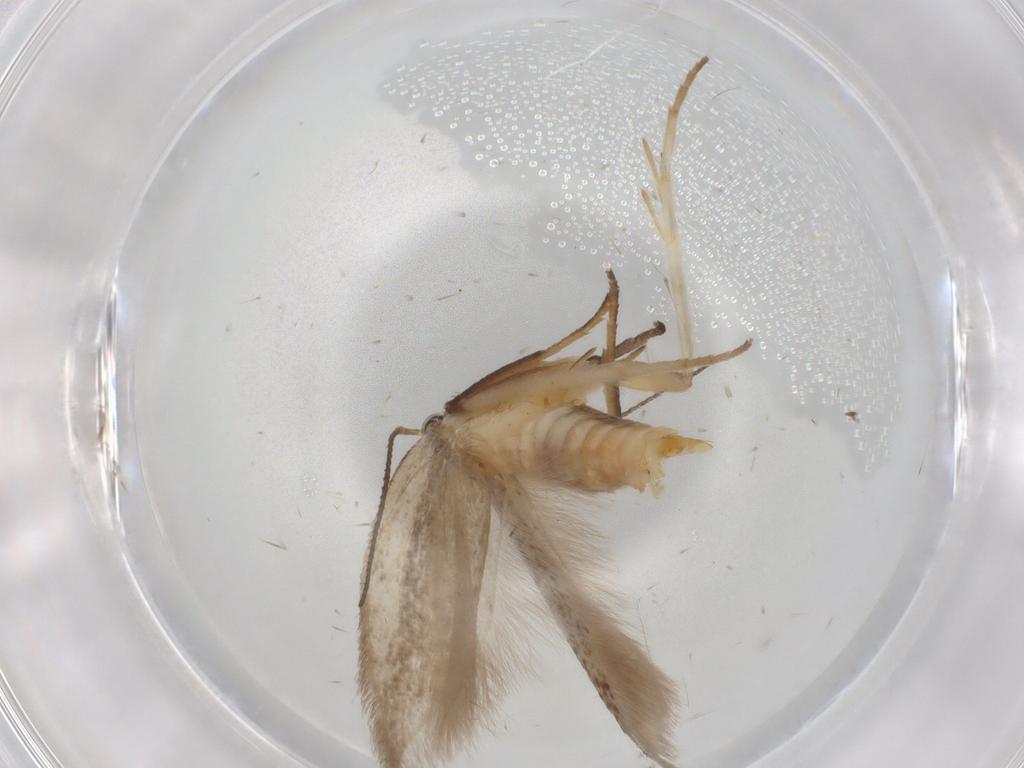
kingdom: Animalia
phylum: Arthropoda
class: Insecta
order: Lepidoptera
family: Gelechiidae
